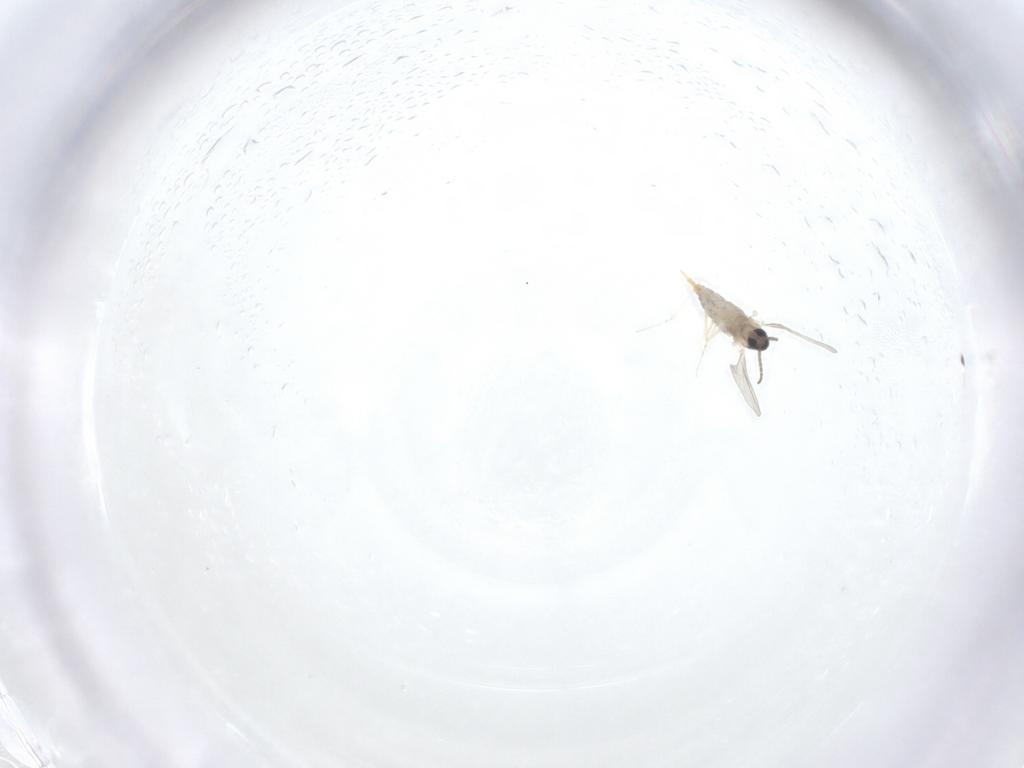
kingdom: Animalia
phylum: Arthropoda
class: Insecta
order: Diptera
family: Cecidomyiidae
